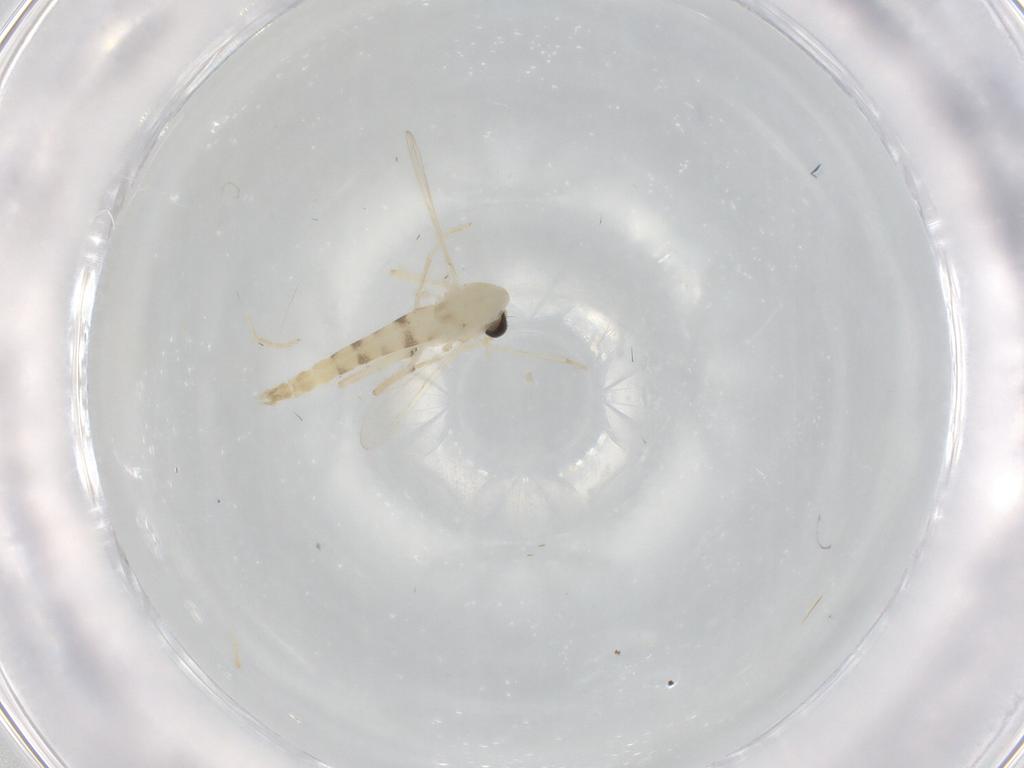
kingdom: Animalia
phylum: Arthropoda
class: Insecta
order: Diptera
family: Chironomidae
